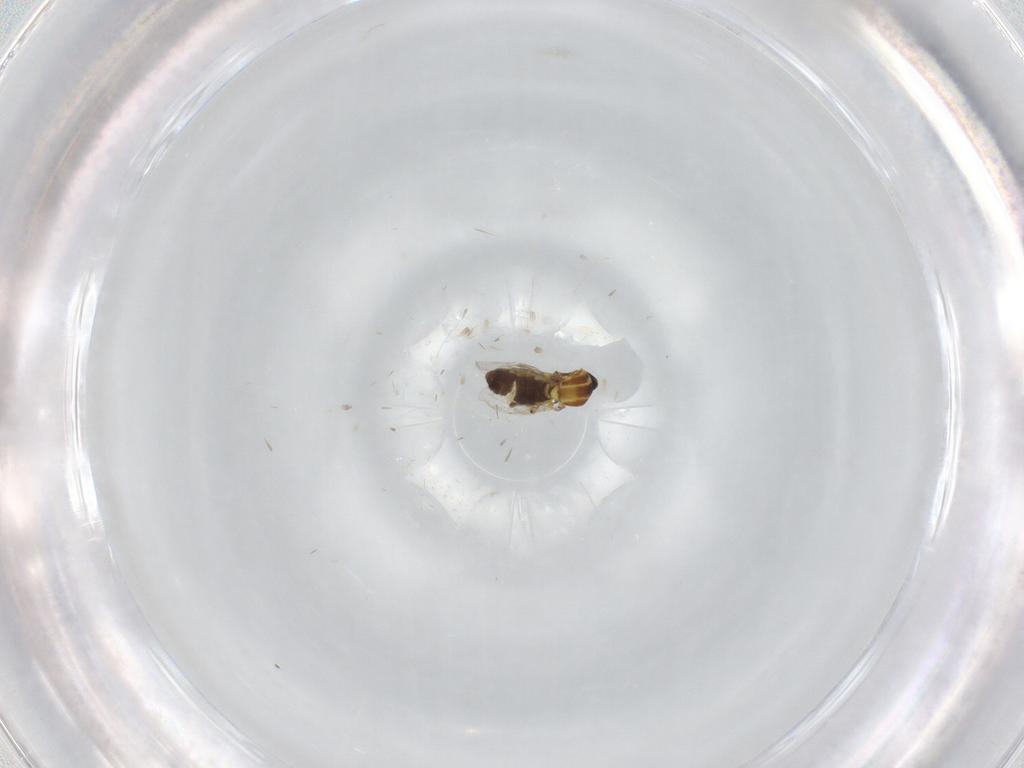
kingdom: Animalia
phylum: Arthropoda
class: Insecta
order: Diptera
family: Ceratopogonidae
